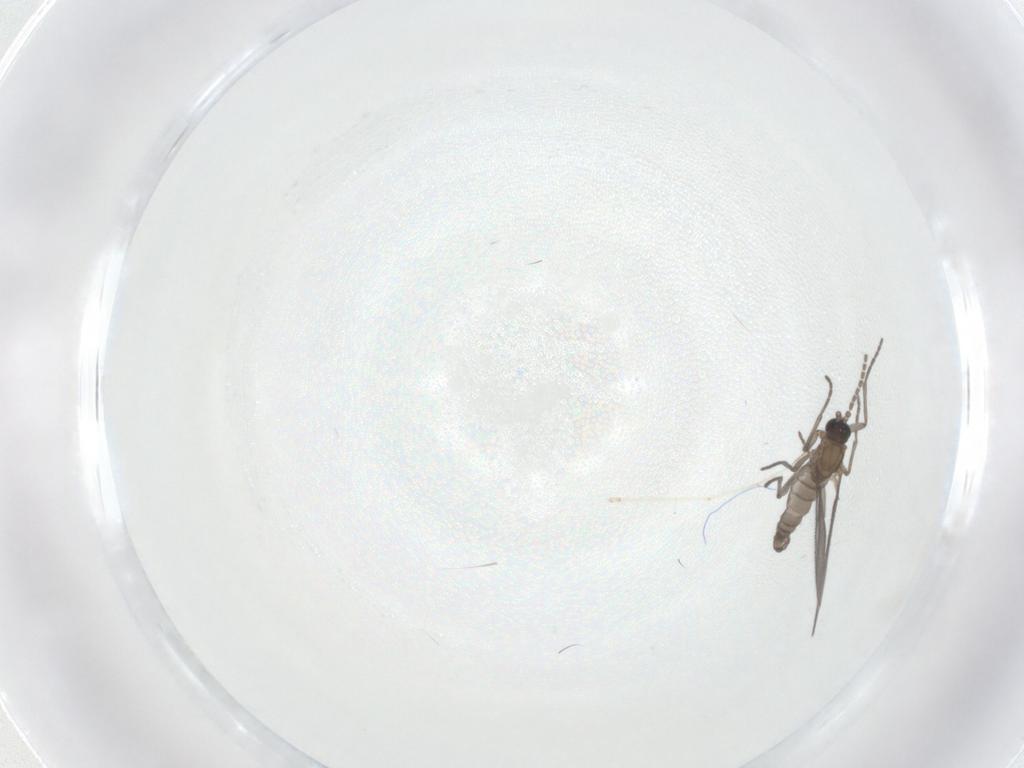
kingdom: Animalia
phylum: Arthropoda
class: Insecta
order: Diptera
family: Sciaridae
